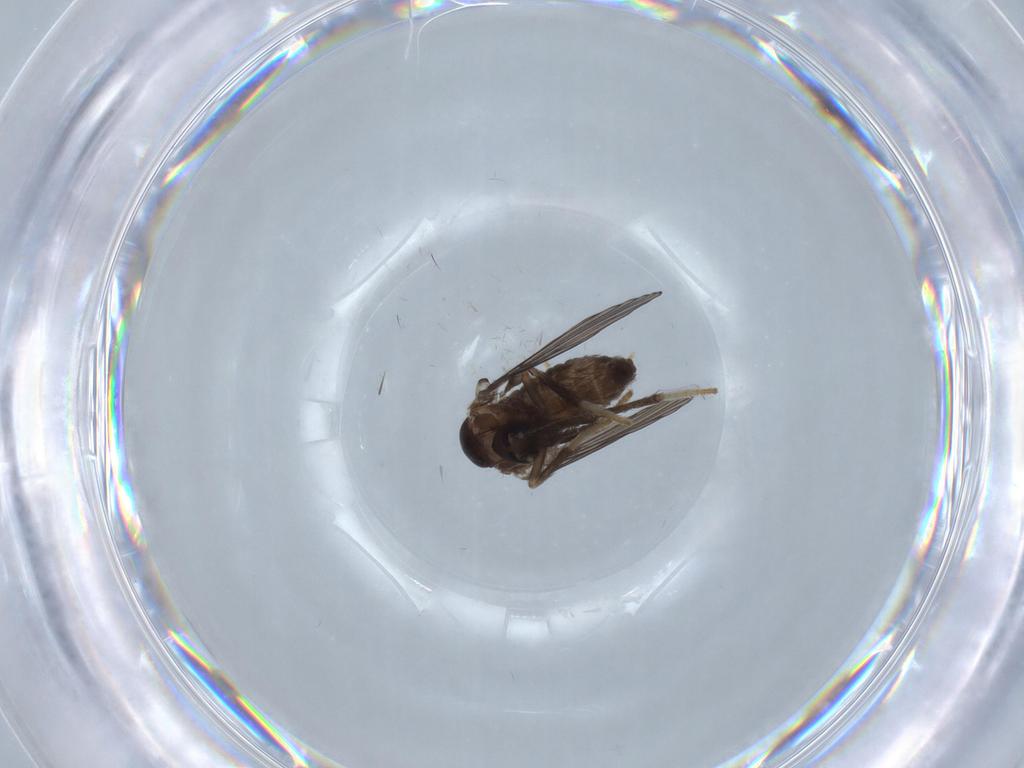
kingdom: Animalia
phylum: Arthropoda
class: Insecta
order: Diptera
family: Psychodidae
